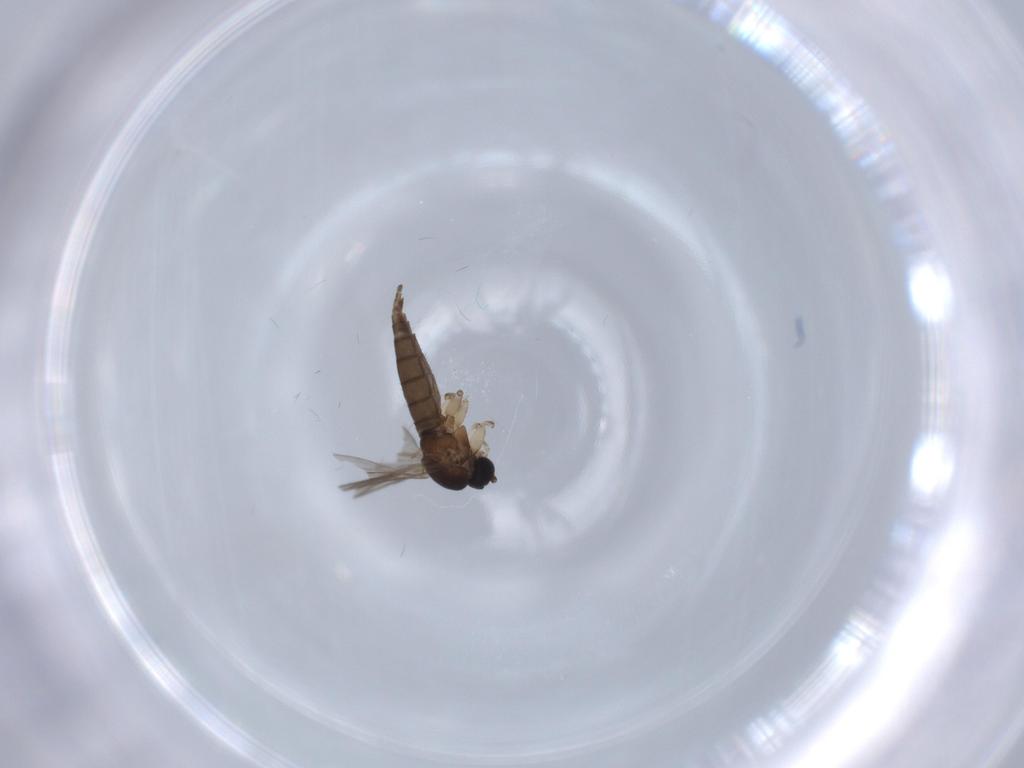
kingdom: Animalia
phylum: Arthropoda
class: Insecta
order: Diptera
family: Sciaridae
